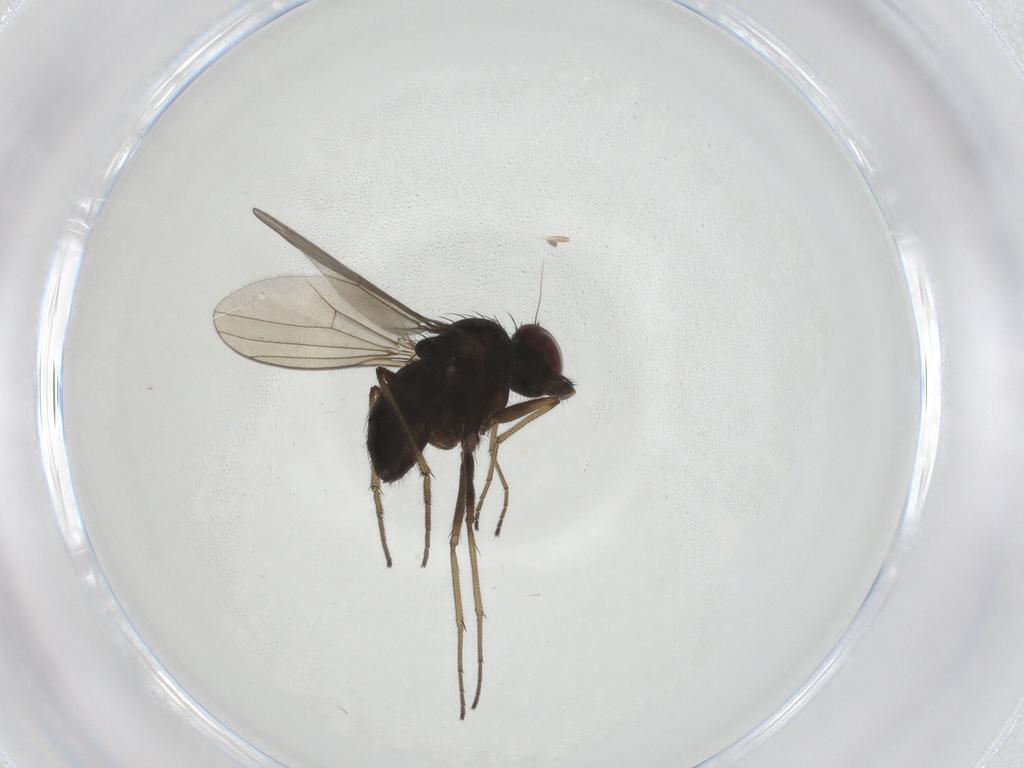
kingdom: Animalia
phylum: Arthropoda
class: Insecta
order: Diptera
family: Dolichopodidae
